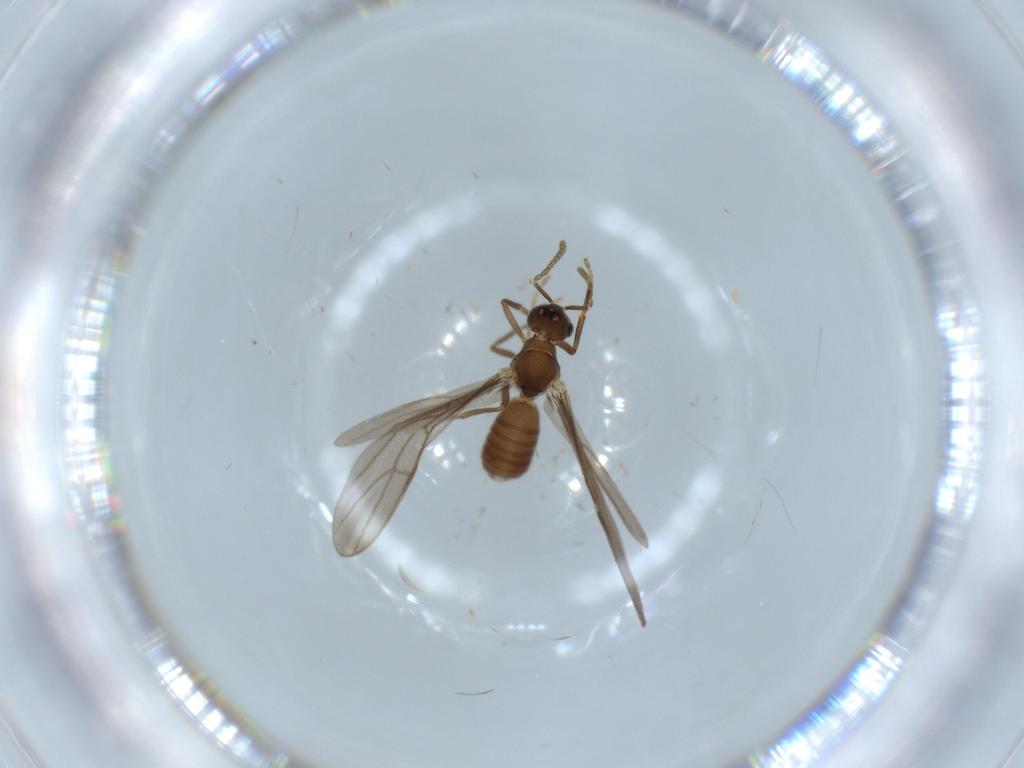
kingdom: Animalia
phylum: Arthropoda
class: Insecta
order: Hymenoptera
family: Formicidae
